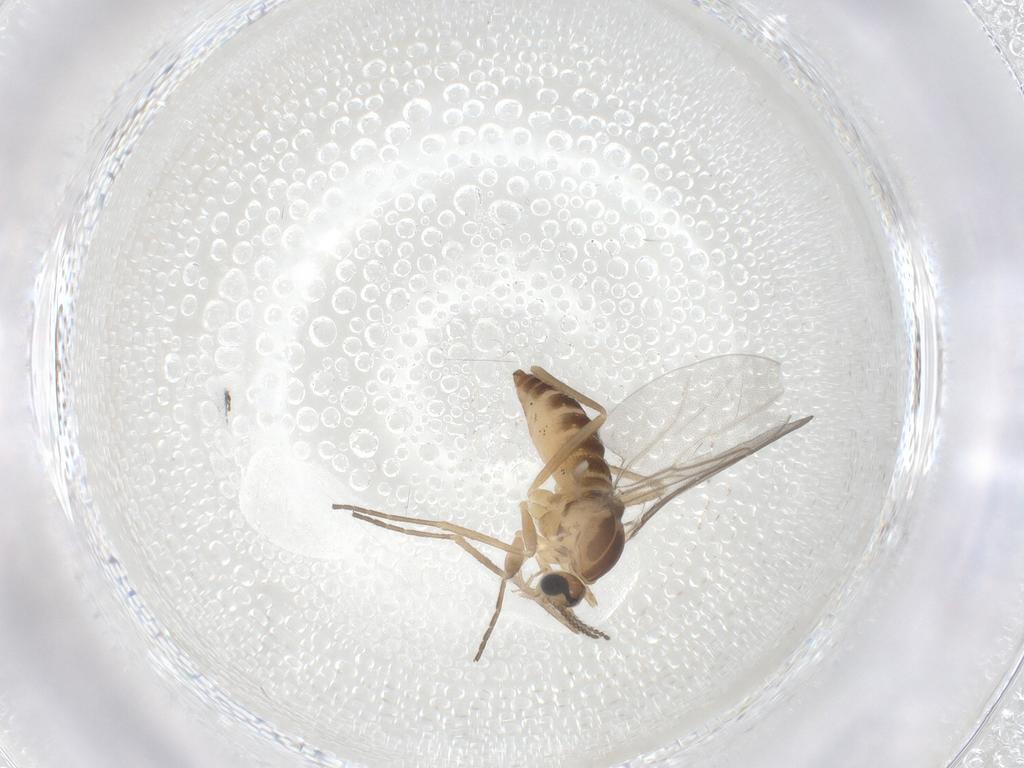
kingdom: Animalia
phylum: Arthropoda
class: Insecta
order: Diptera
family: Cecidomyiidae
